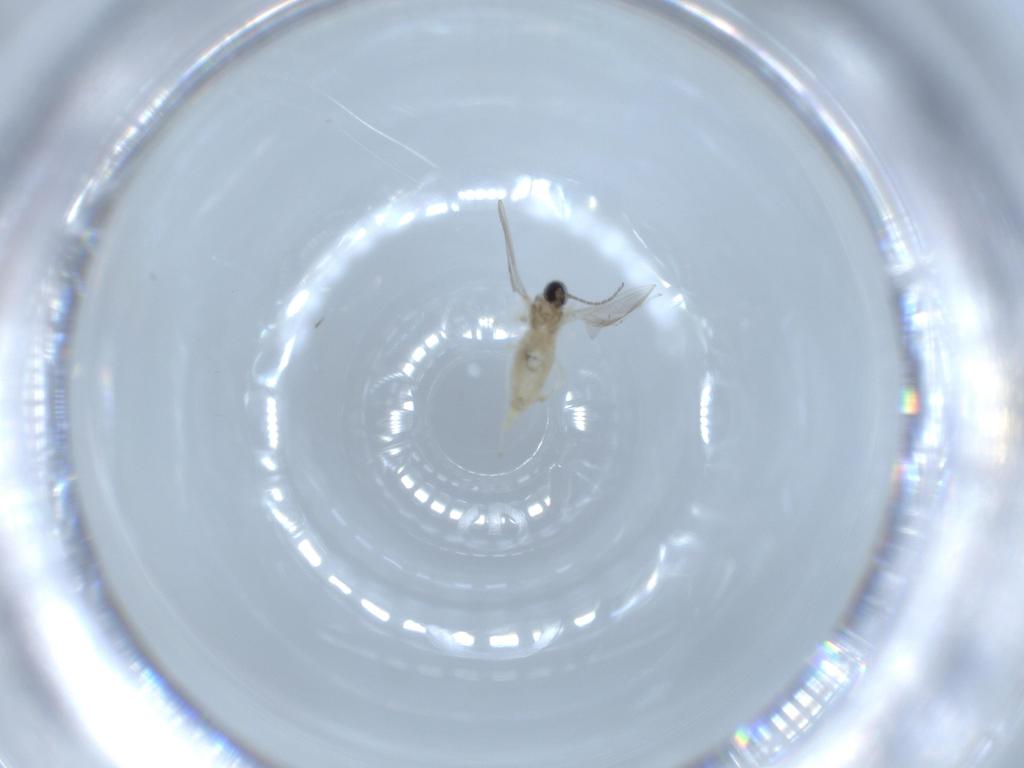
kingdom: Animalia
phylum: Arthropoda
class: Insecta
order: Diptera
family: Cecidomyiidae
